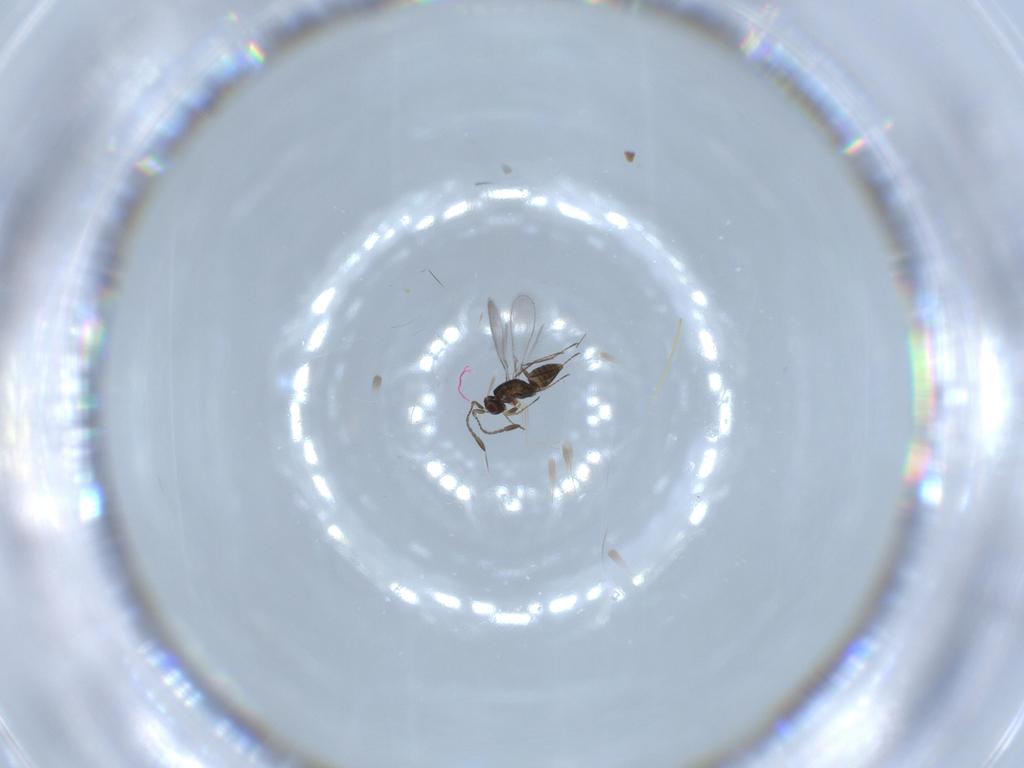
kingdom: Animalia
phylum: Arthropoda
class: Insecta
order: Hymenoptera
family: Mymaridae
